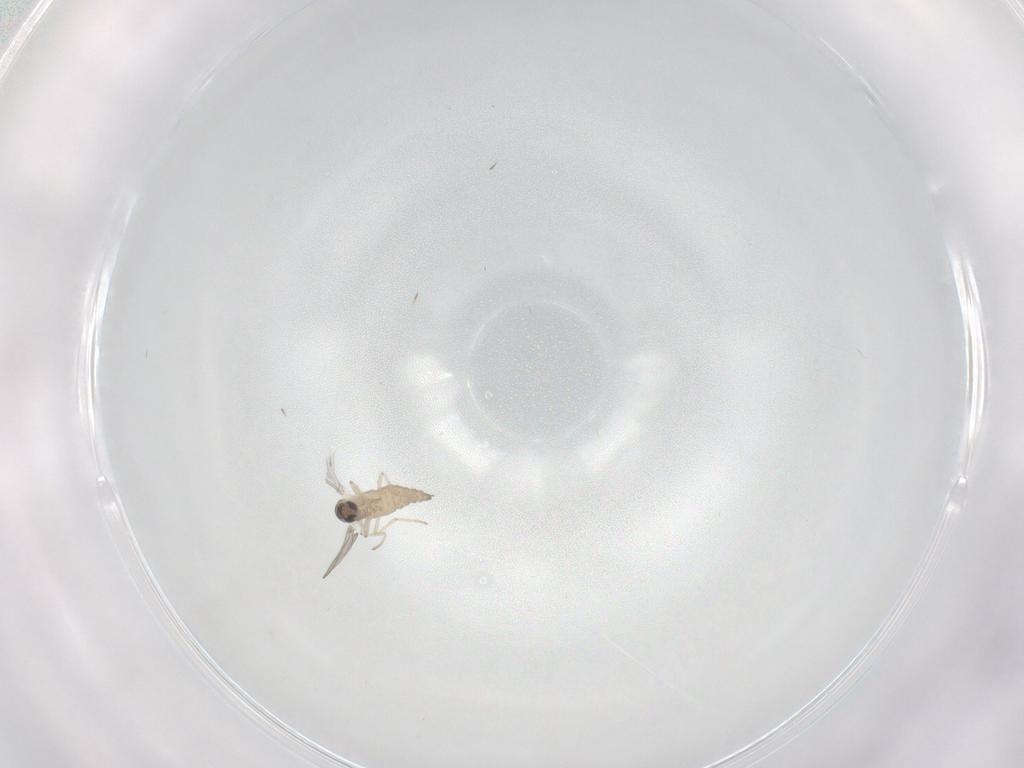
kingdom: Animalia
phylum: Arthropoda
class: Insecta
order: Diptera
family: Cecidomyiidae
